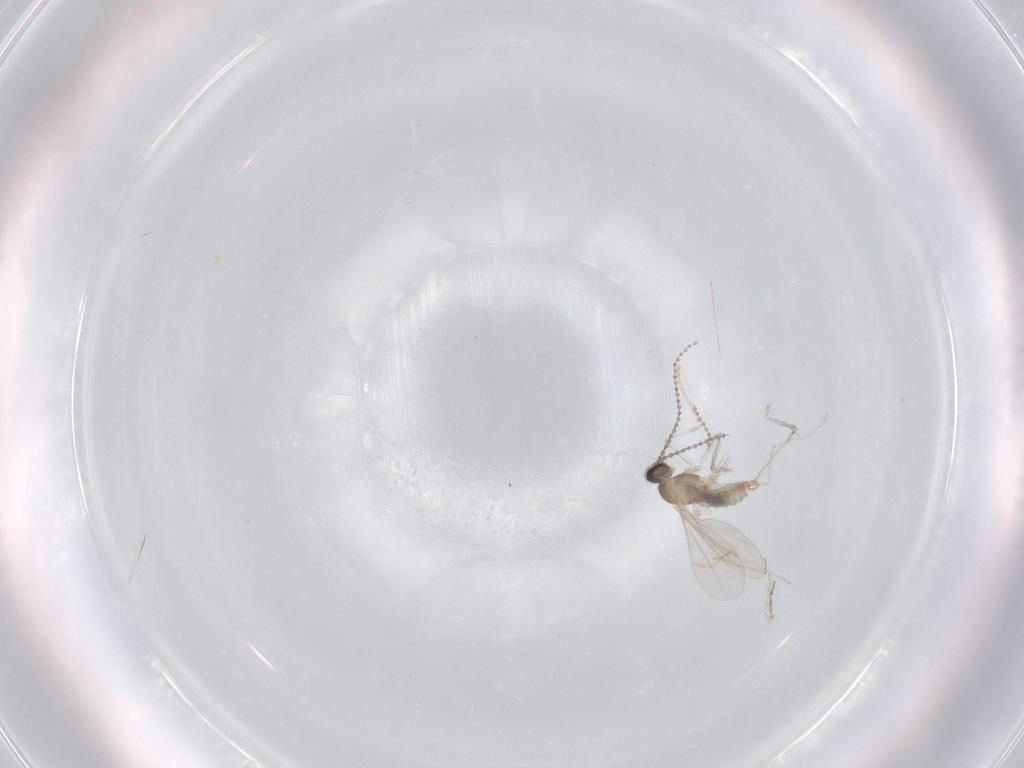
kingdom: Animalia
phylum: Arthropoda
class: Insecta
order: Diptera
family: Cecidomyiidae
